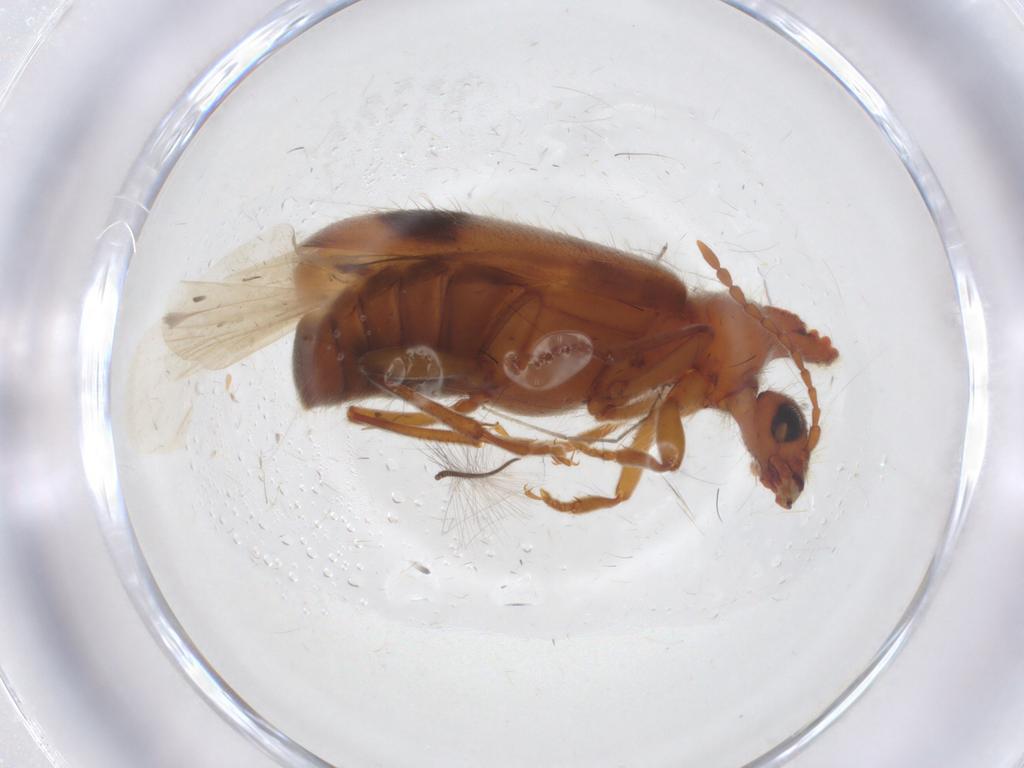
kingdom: Animalia
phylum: Arthropoda
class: Insecta
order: Coleoptera
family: Anthicidae
